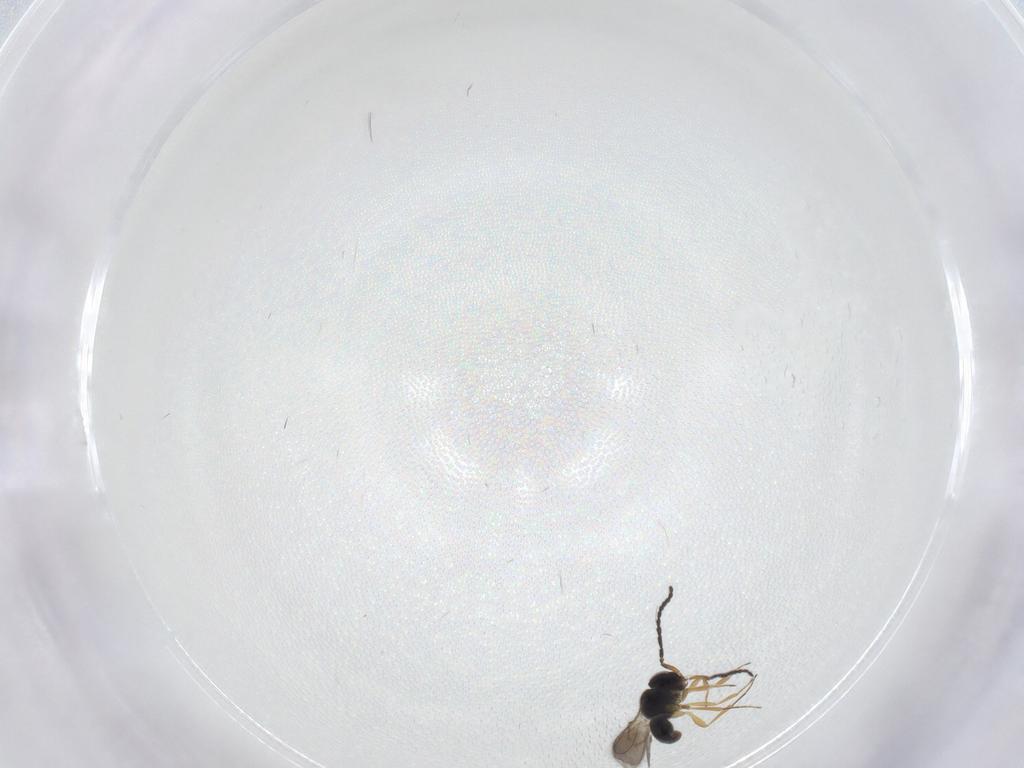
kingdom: Animalia
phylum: Arthropoda
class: Insecta
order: Hymenoptera
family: Scelionidae
